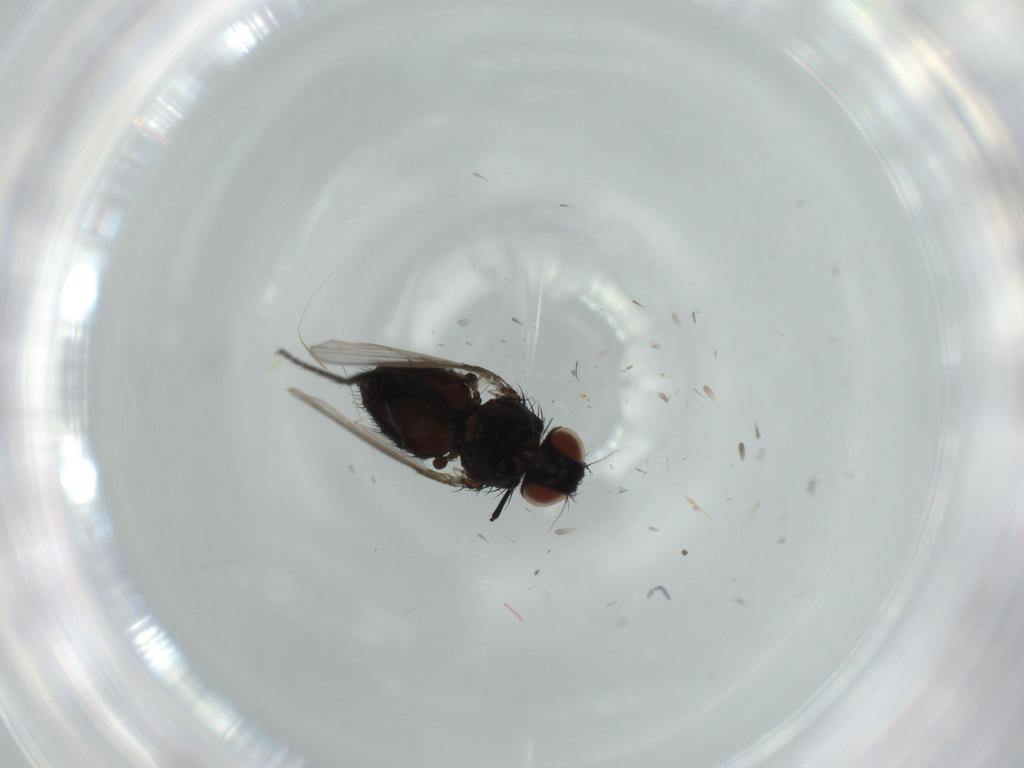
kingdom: Animalia
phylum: Arthropoda
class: Insecta
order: Diptera
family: Milichiidae
